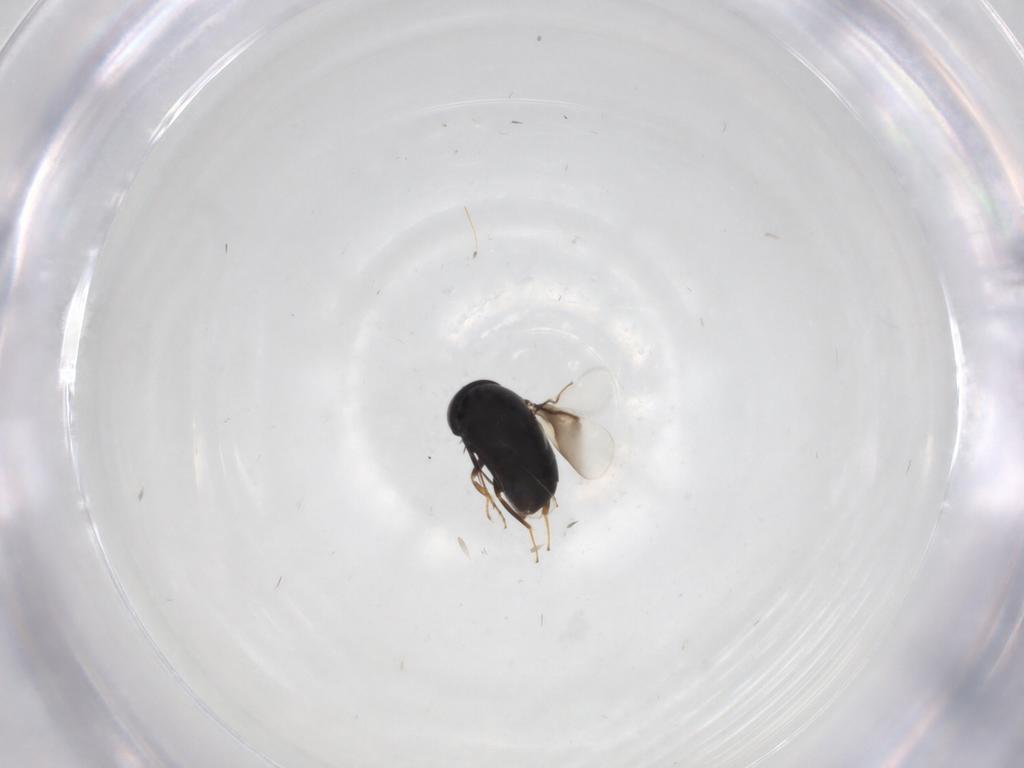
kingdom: Animalia
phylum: Arthropoda
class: Insecta
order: Hymenoptera
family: Signiphoridae
